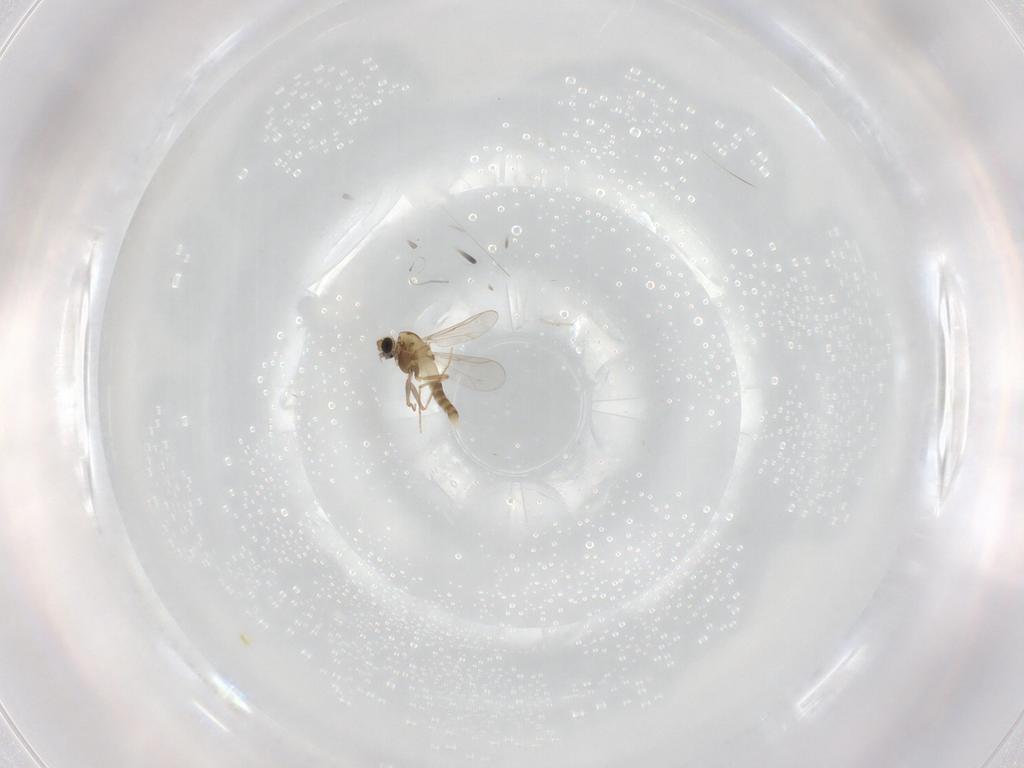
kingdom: Animalia
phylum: Arthropoda
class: Insecta
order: Diptera
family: Chironomidae
